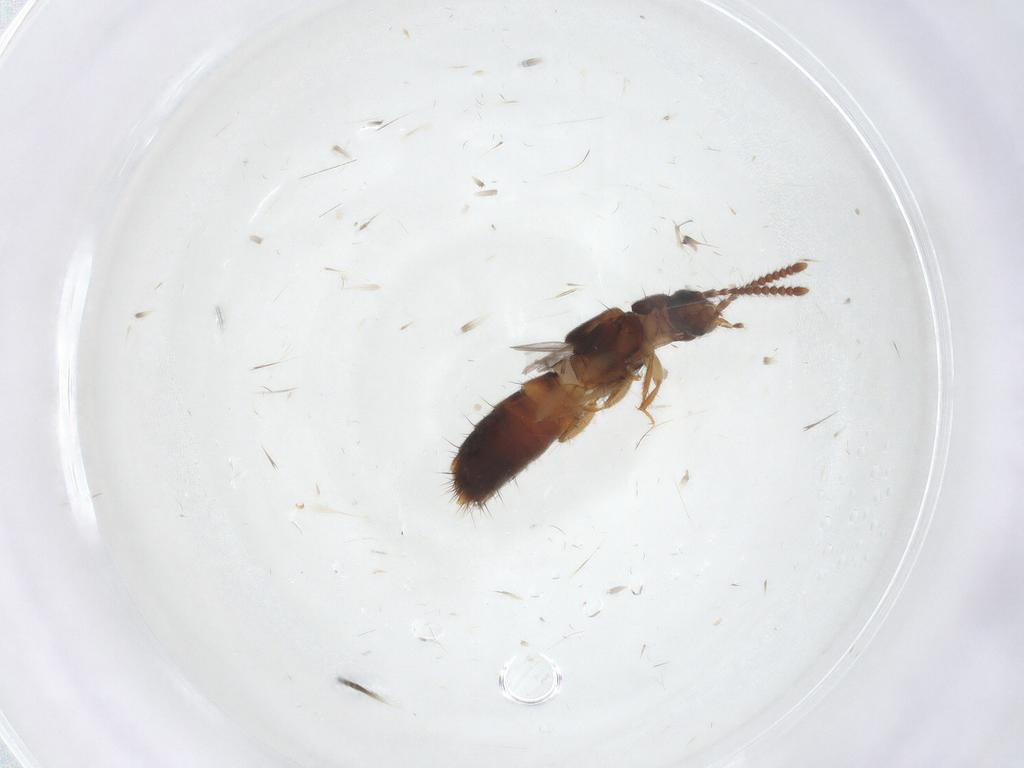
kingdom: Animalia
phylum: Arthropoda
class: Insecta
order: Coleoptera
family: Staphylinidae
